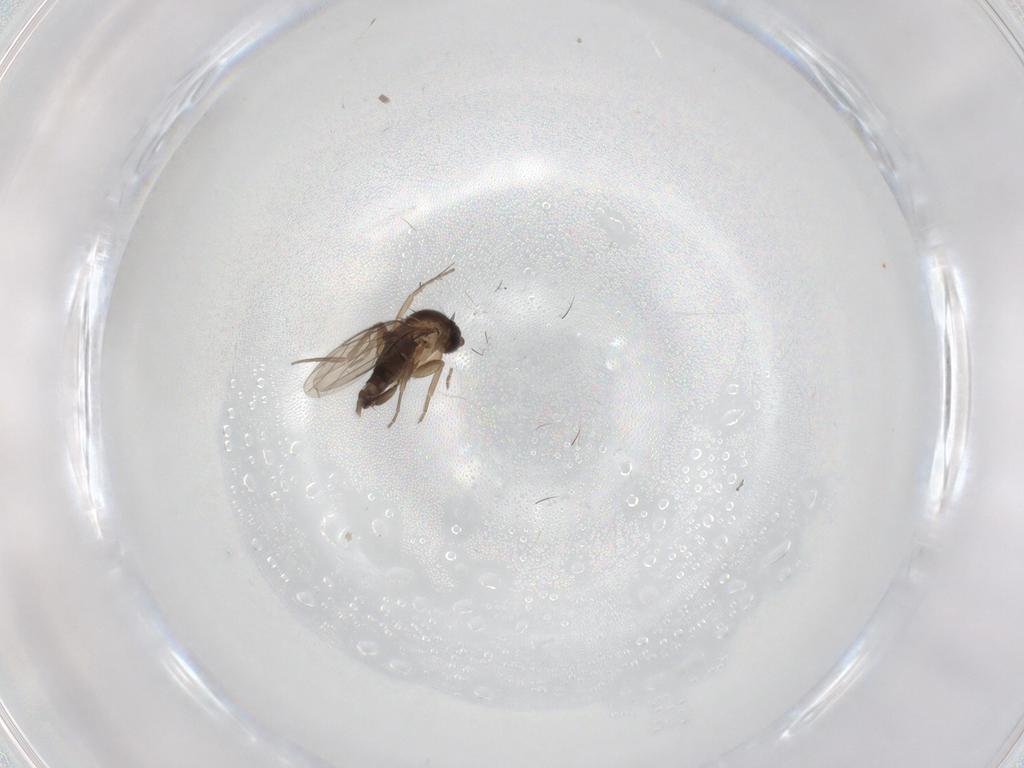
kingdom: Animalia
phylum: Arthropoda
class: Insecta
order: Diptera
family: Phoridae
